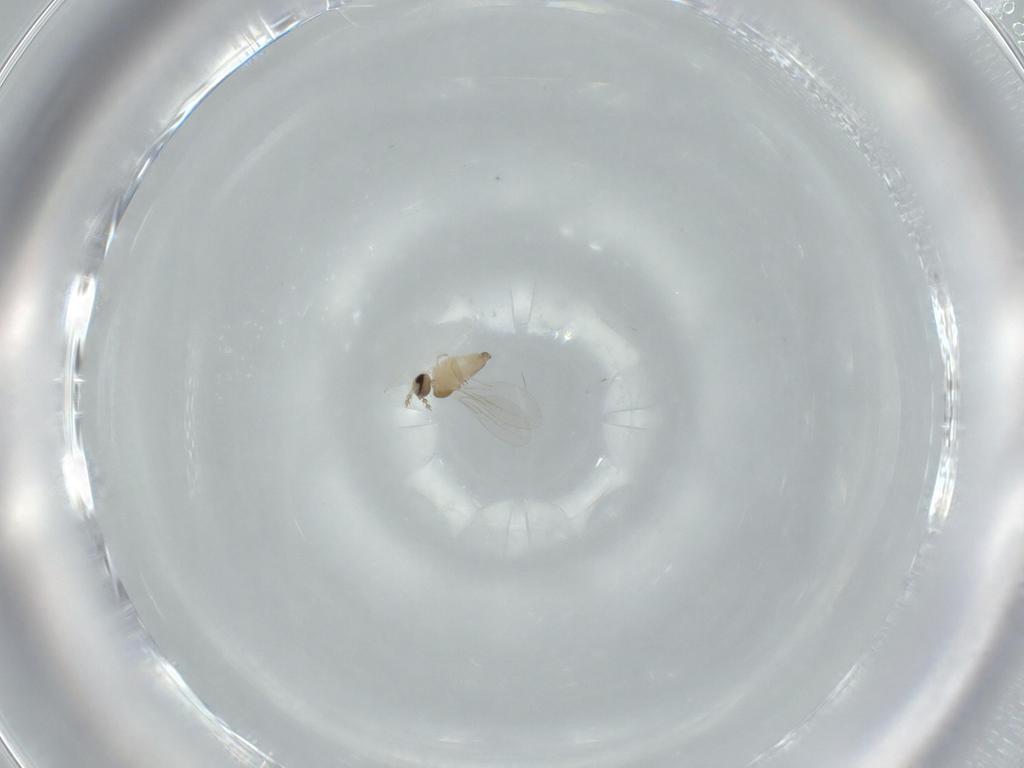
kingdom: Animalia
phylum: Arthropoda
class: Insecta
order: Diptera
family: Cecidomyiidae
